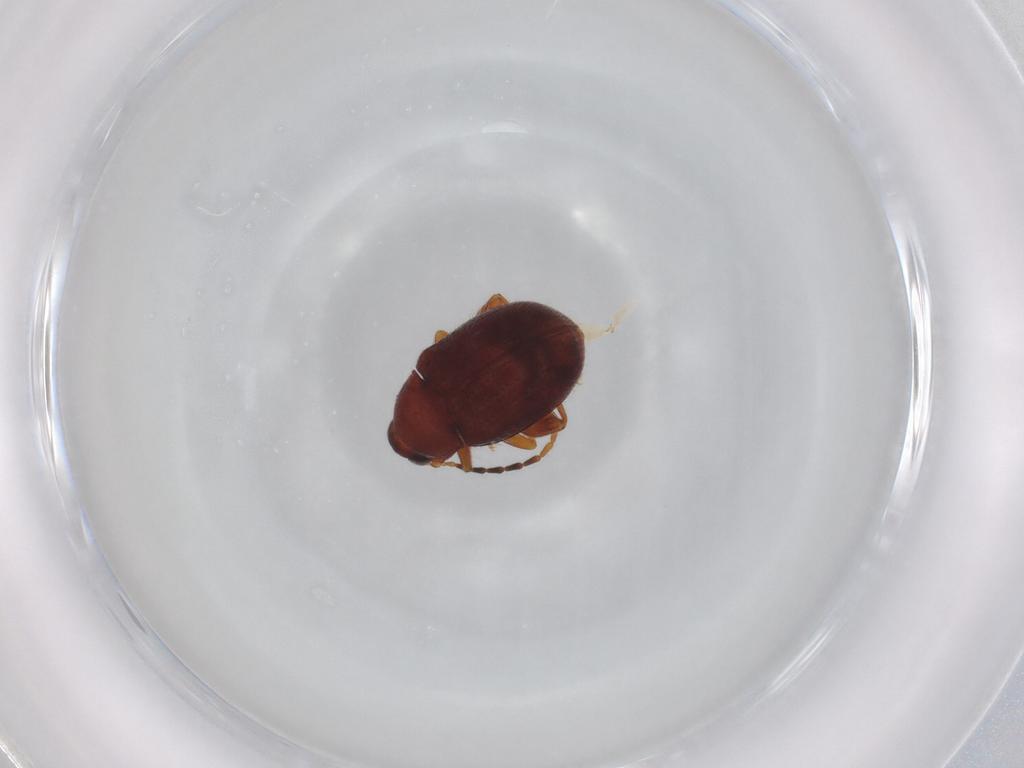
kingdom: Animalia
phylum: Arthropoda
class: Insecta
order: Coleoptera
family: Chrysomelidae
